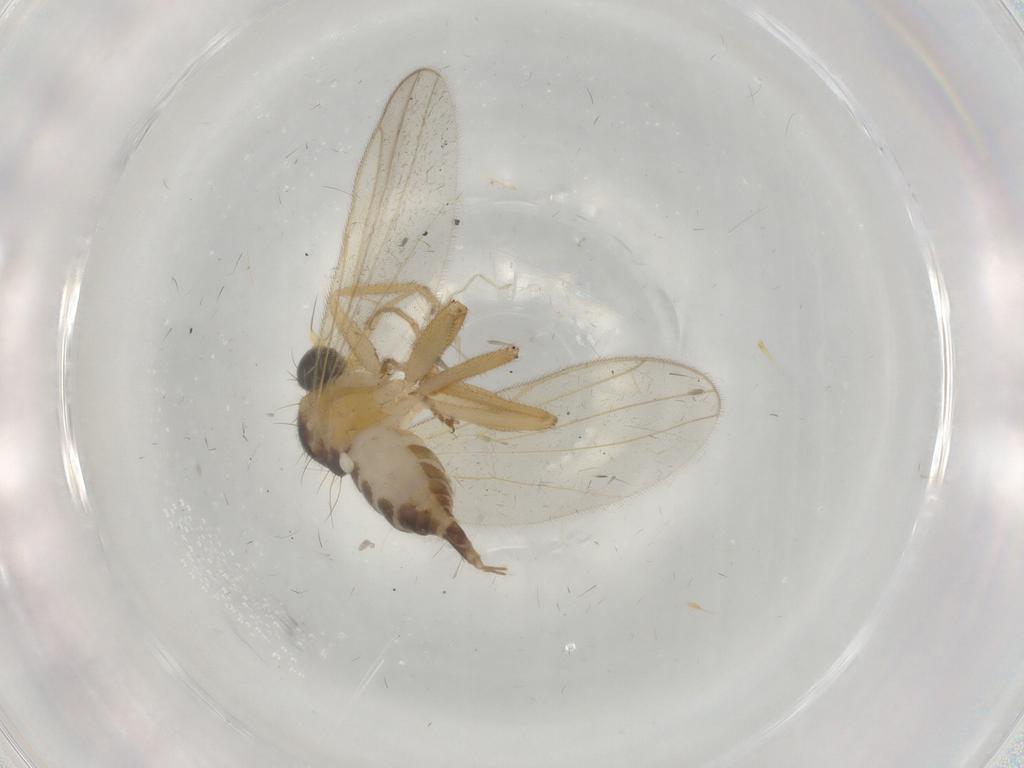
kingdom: Animalia
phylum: Arthropoda
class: Insecta
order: Diptera
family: Hybotidae
